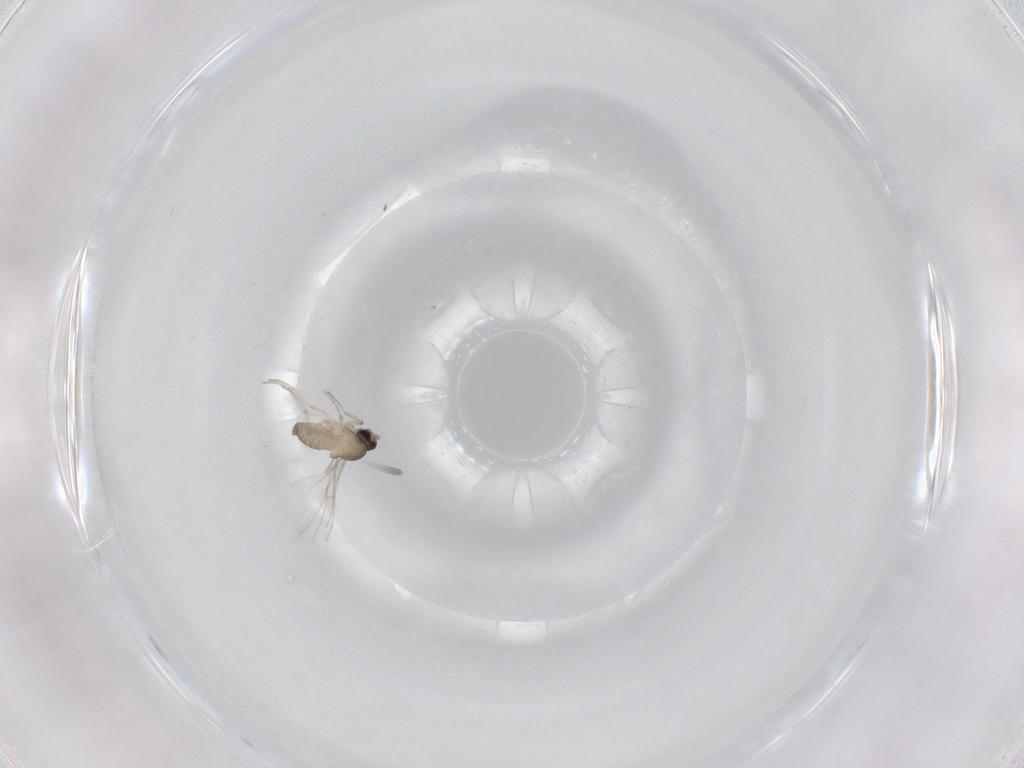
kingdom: Animalia
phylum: Arthropoda
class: Insecta
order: Diptera
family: Cecidomyiidae
